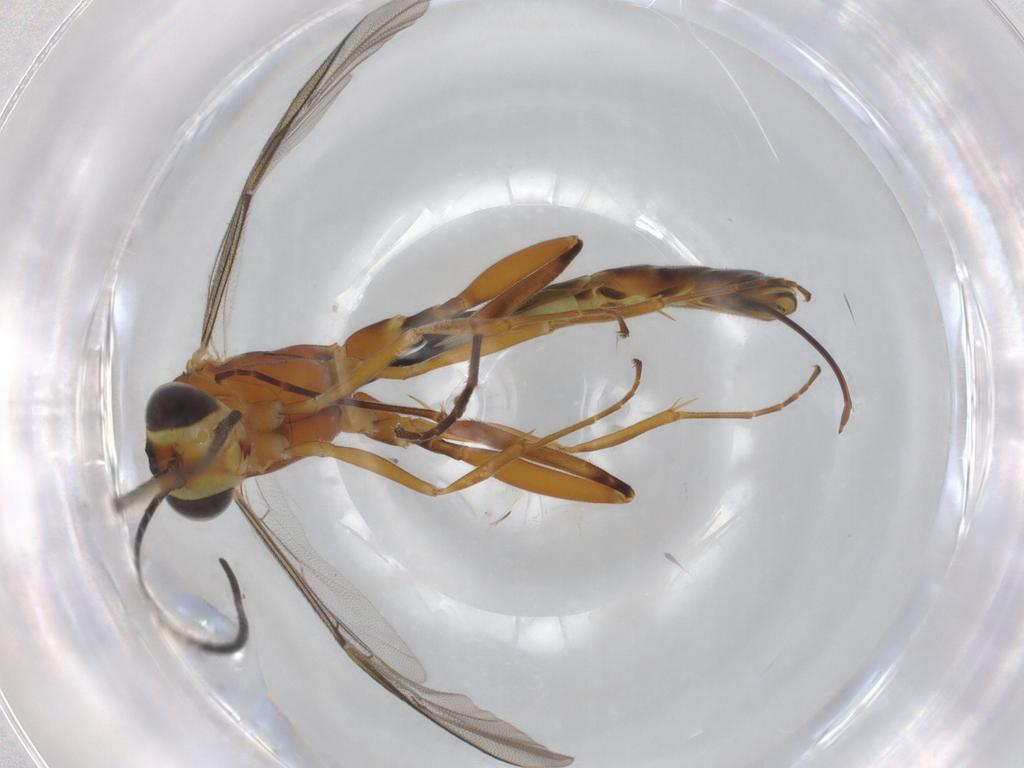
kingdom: Animalia
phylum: Arthropoda
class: Insecta
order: Hymenoptera
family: Pteromalidae
